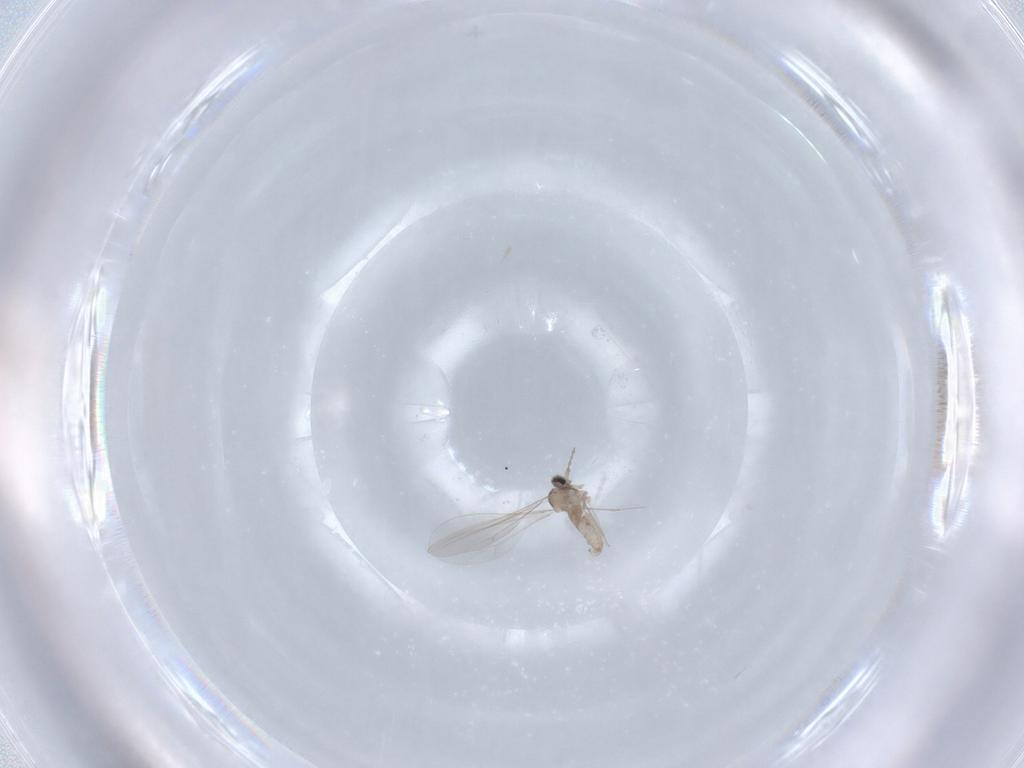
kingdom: Animalia
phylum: Arthropoda
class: Insecta
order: Diptera
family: Cecidomyiidae
